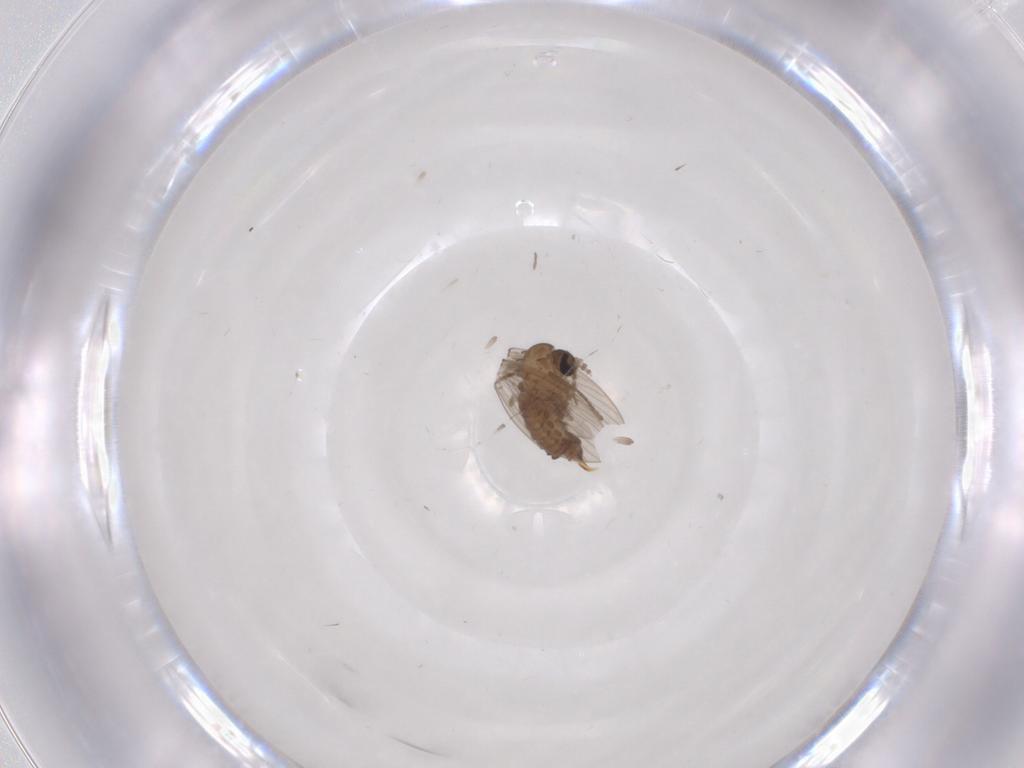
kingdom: Animalia
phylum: Arthropoda
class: Insecta
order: Diptera
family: Psychodidae
